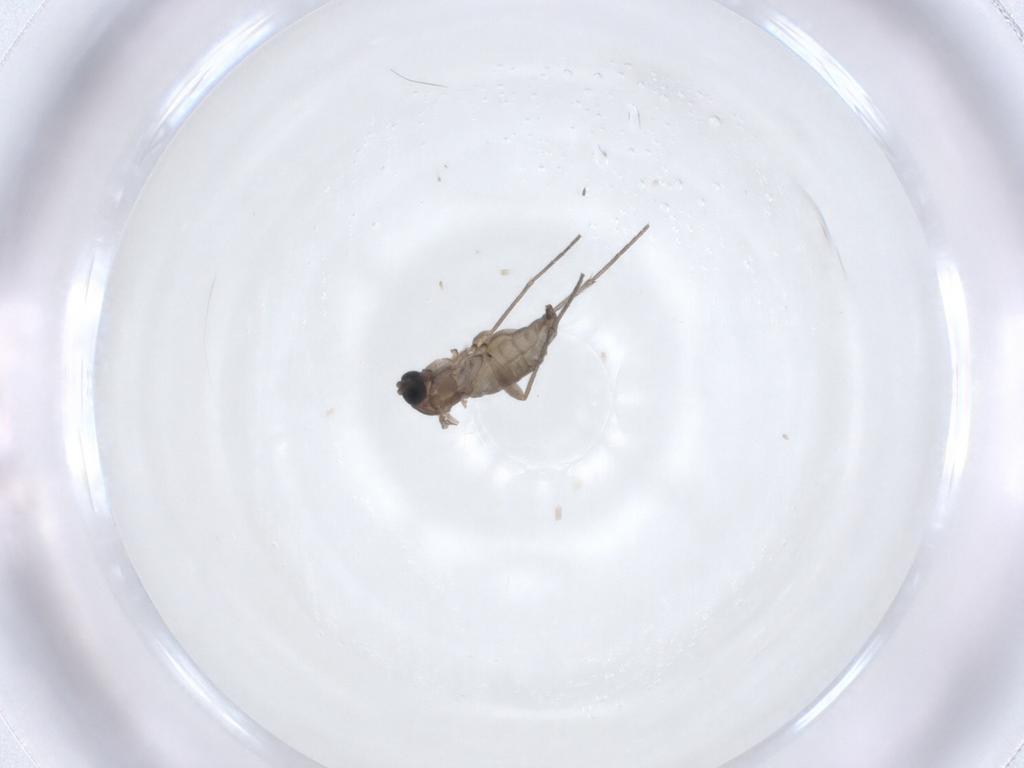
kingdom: Animalia
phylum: Arthropoda
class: Insecta
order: Diptera
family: Sciaridae
